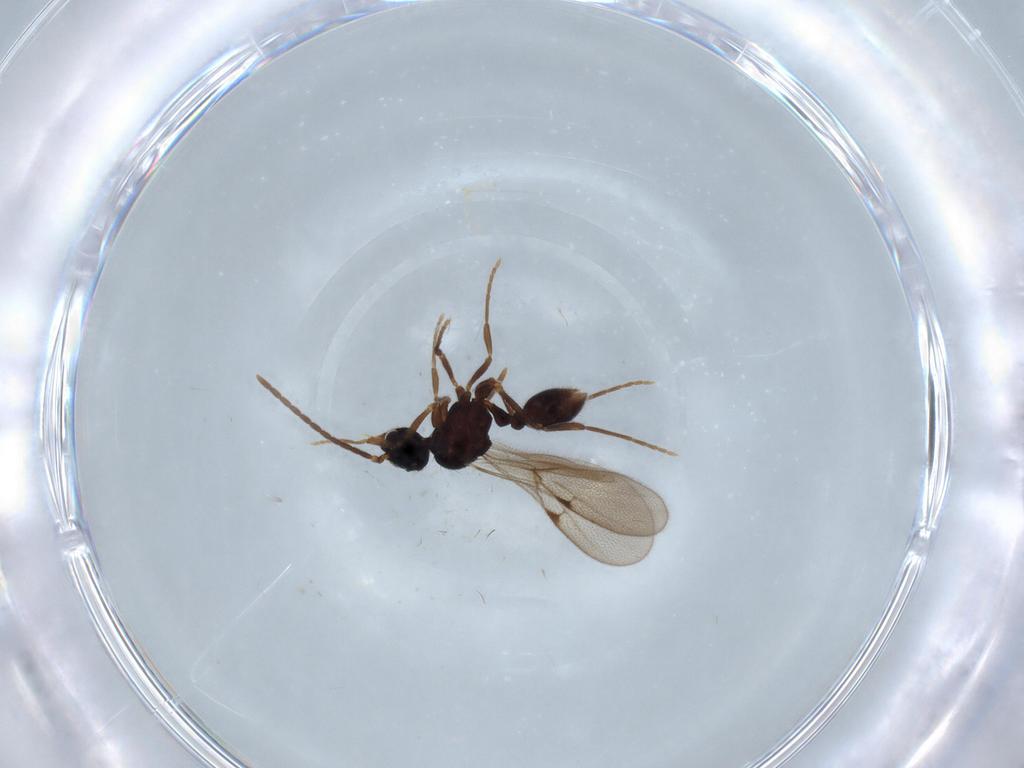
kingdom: Animalia
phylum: Arthropoda
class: Insecta
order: Hymenoptera
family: Formicidae
